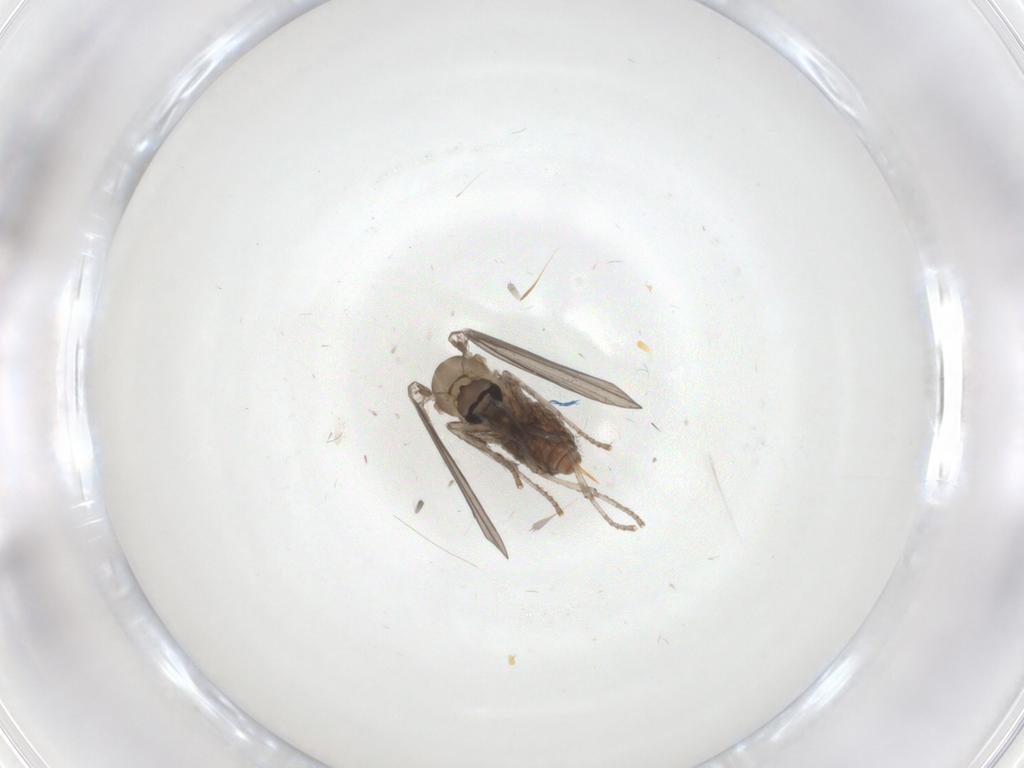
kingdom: Animalia
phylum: Arthropoda
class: Insecta
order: Diptera
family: Psychodidae
